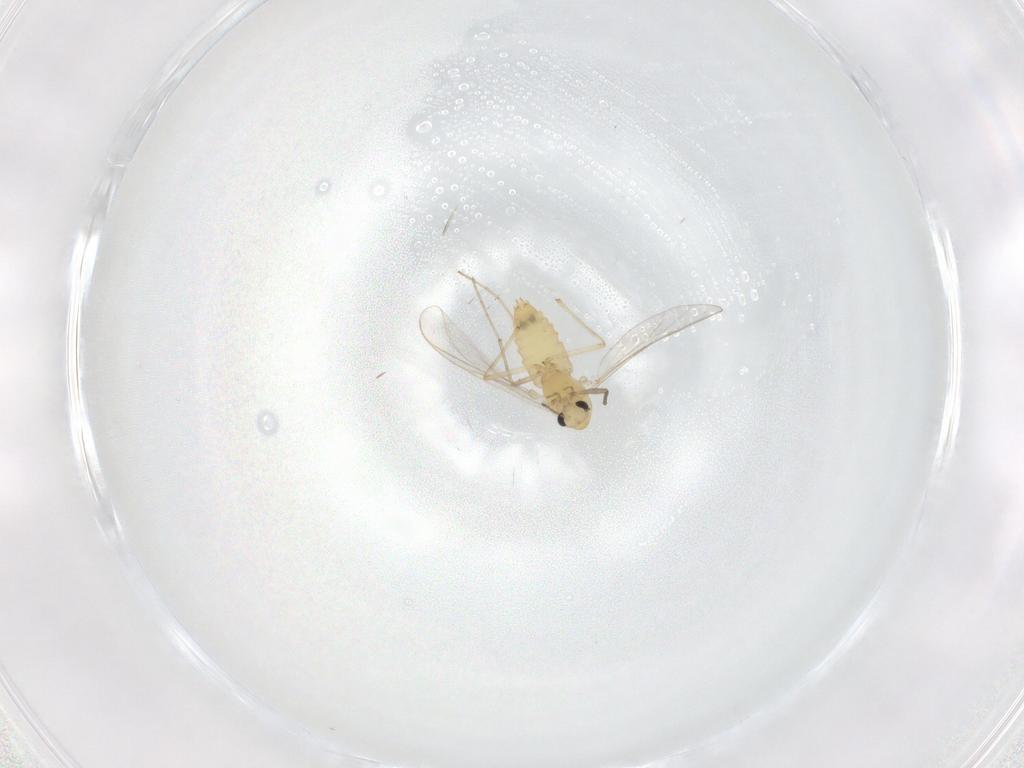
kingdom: Animalia
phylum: Arthropoda
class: Insecta
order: Diptera
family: Chironomidae
